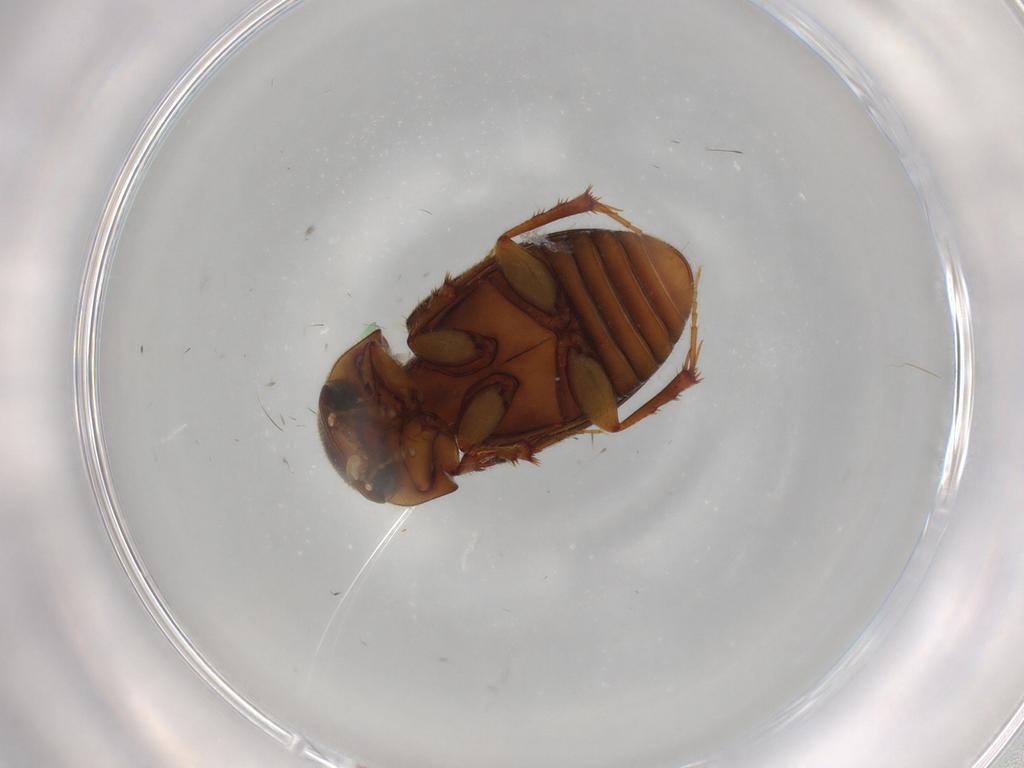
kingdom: Animalia
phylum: Arthropoda
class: Insecta
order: Coleoptera
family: Scarabaeidae
